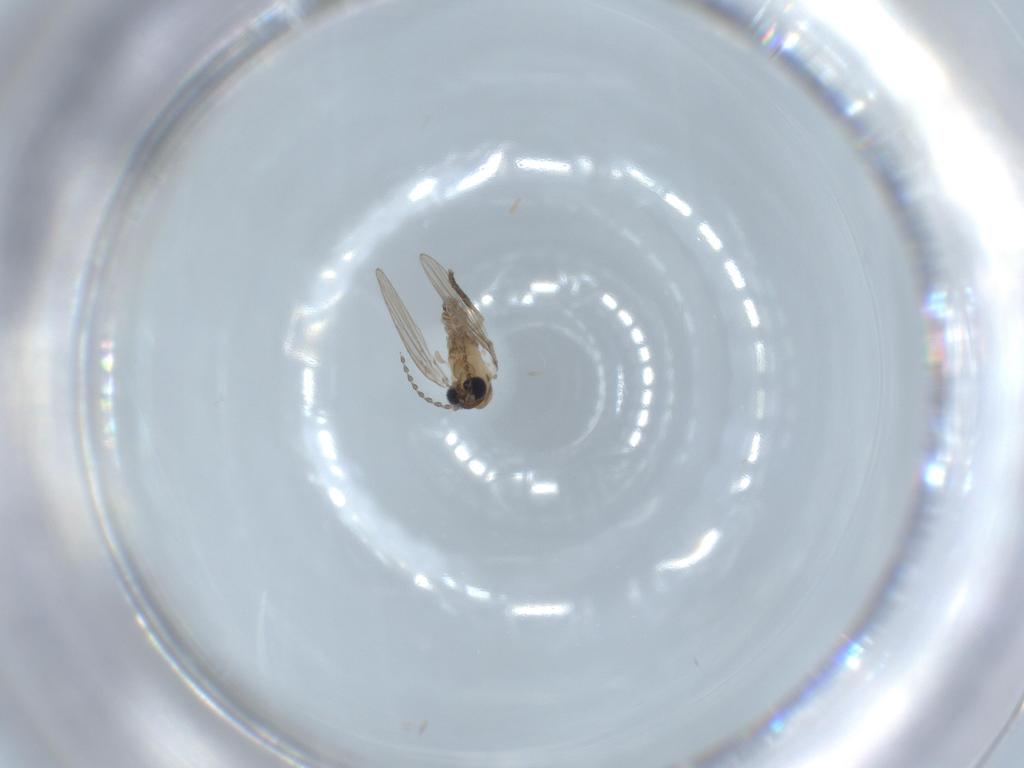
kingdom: Animalia
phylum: Arthropoda
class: Insecta
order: Diptera
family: Psychodidae
